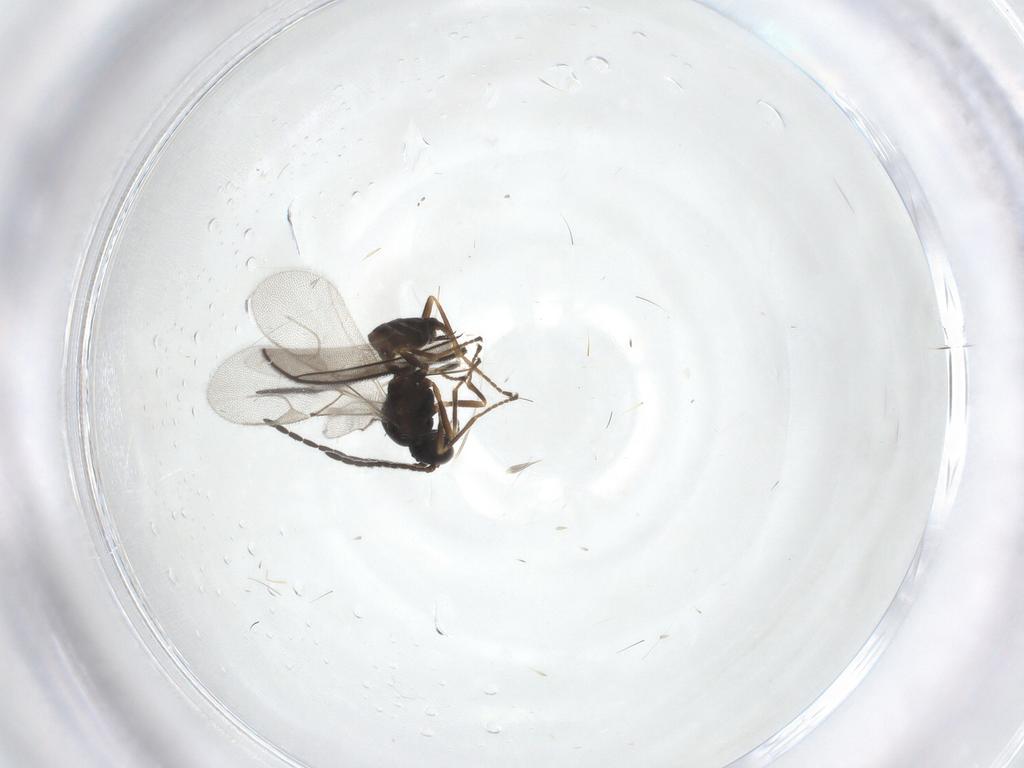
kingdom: Animalia
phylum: Arthropoda
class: Insecta
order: Hymenoptera
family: Braconidae
